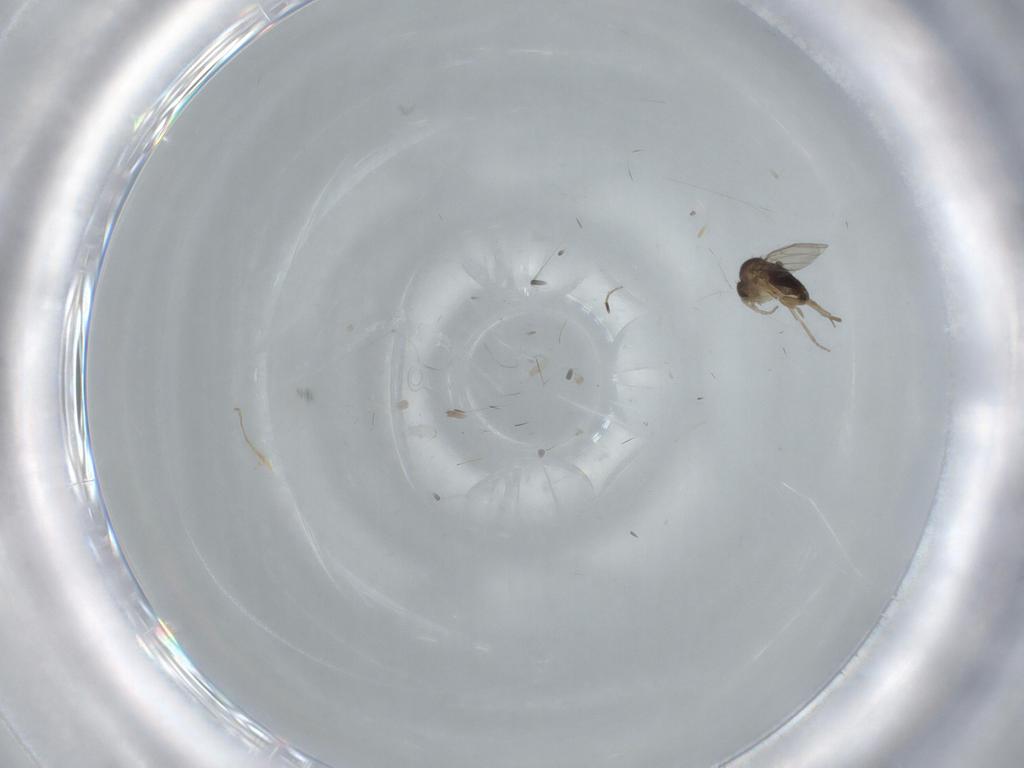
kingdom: Animalia
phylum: Arthropoda
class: Insecta
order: Diptera
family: Phoridae
